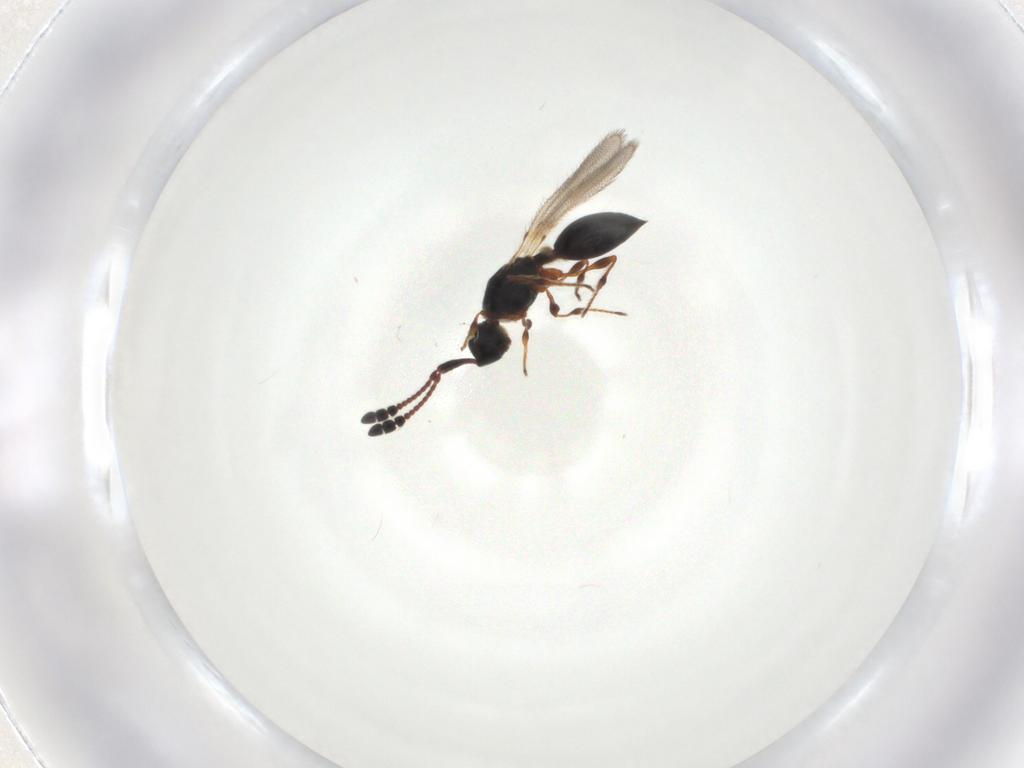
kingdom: Animalia
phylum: Arthropoda
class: Insecta
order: Hymenoptera
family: Diapriidae
